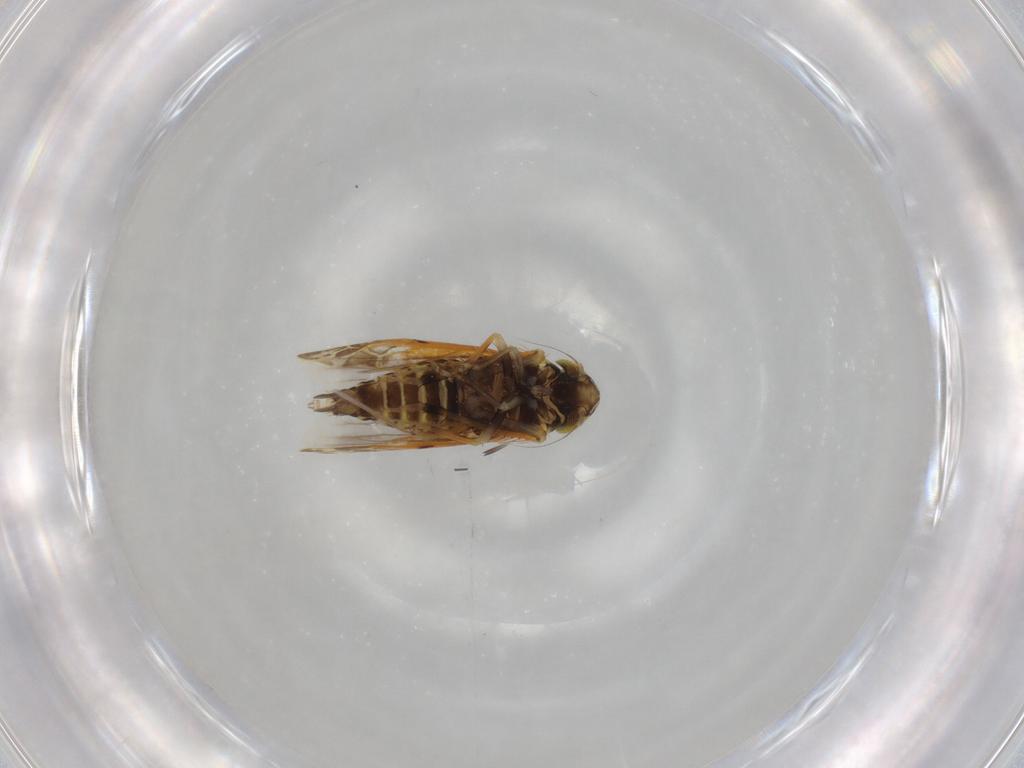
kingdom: Animalia
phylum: Arthropoda
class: Insecta
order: Hemiptera
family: Cicadellidae
